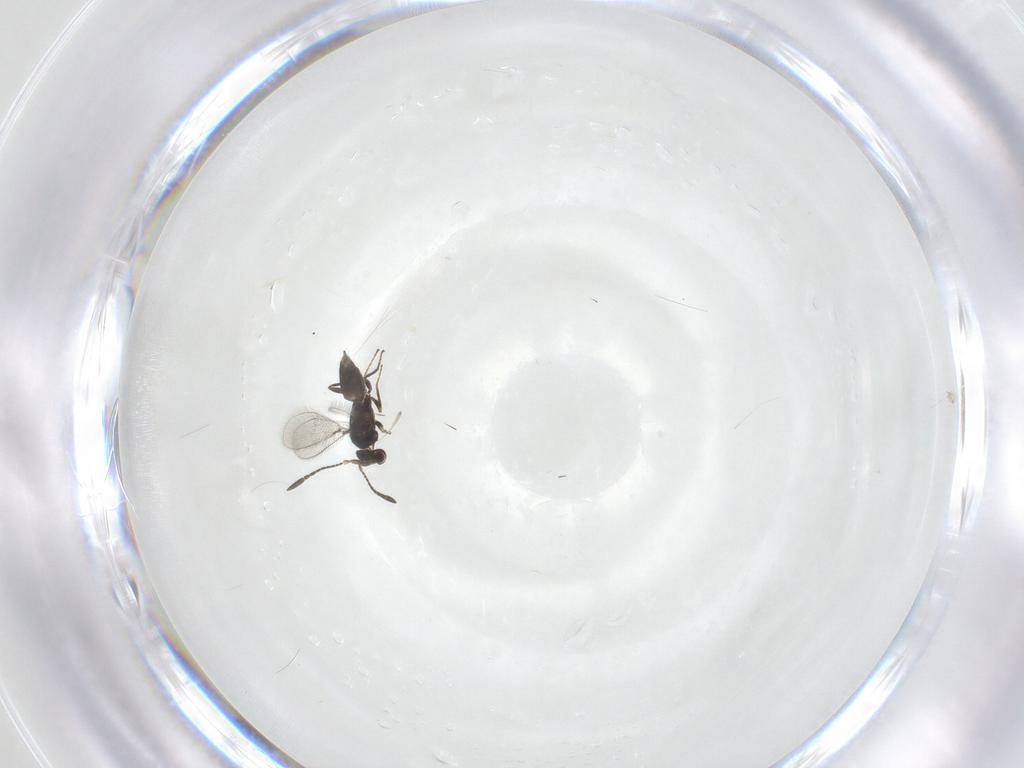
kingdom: Animalia
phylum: Arthropoda
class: Insecta
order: Hymenoptera
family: Mymaridae
